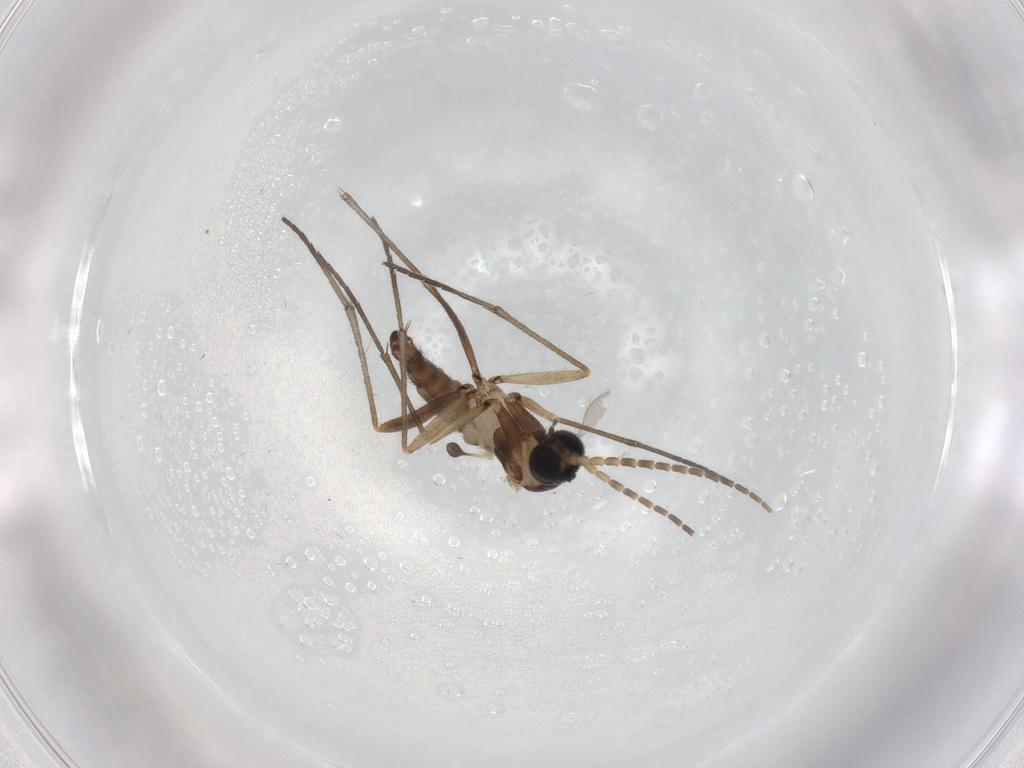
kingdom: Animalia
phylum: Arthropoda
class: Insecta
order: Diptera
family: Sciaridae
